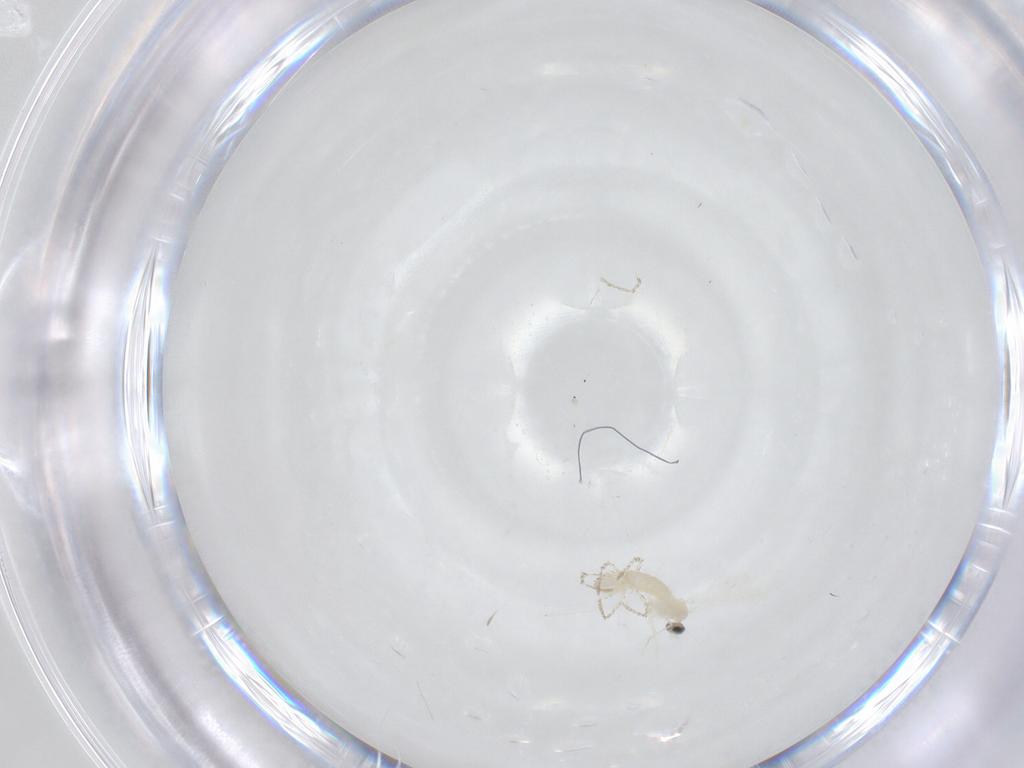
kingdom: Animalia
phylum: Arthropoda
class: Insecta
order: Diptera
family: Cecidomyiidae
